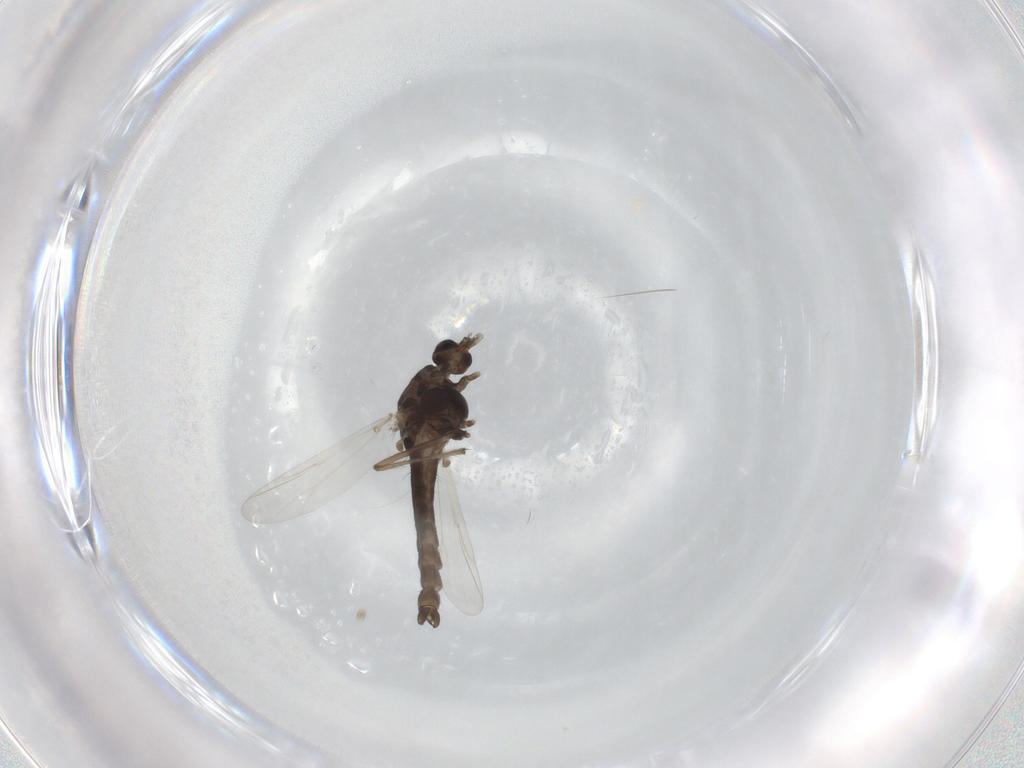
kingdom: Animalia
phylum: Arthropoda
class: Insecta
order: Diptera
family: Chironomidae
